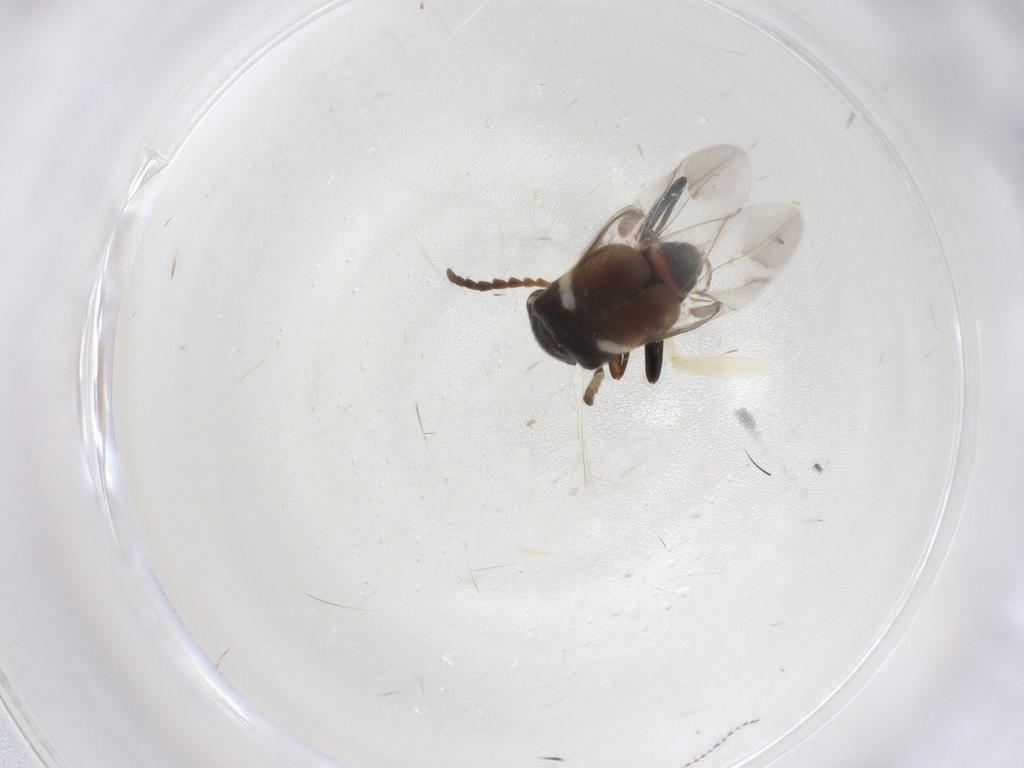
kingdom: Animalia
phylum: Arthropoda
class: Insecta
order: Coleoptera
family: Melyridae
